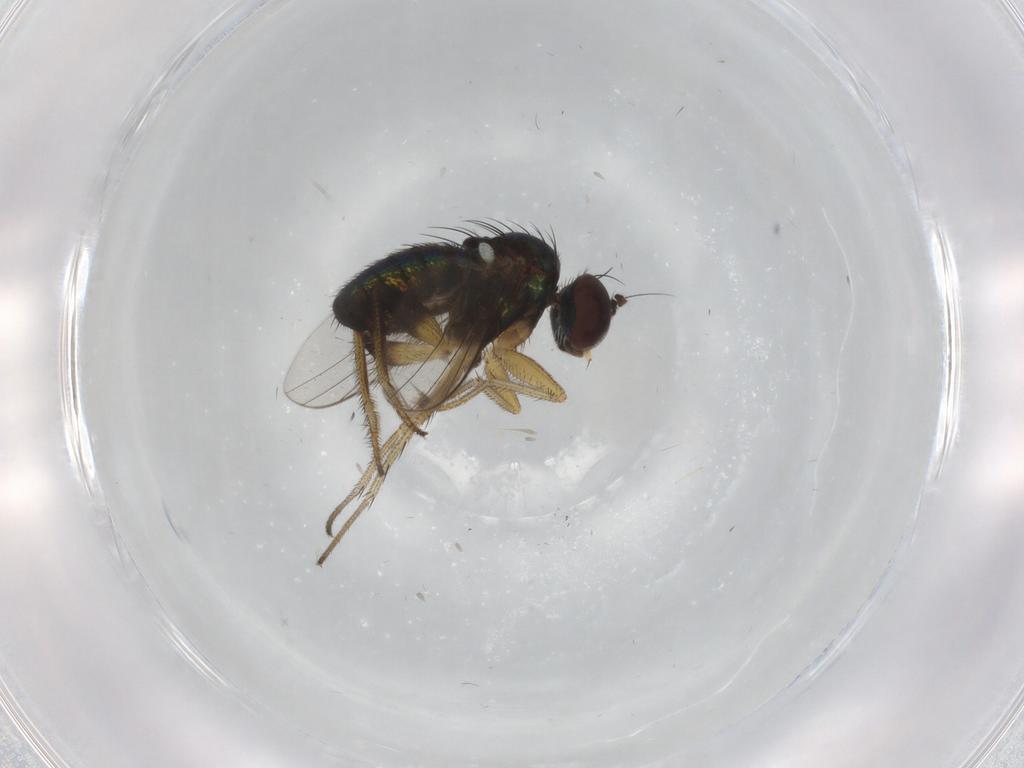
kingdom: Animalia
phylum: Arthropoda
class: Insecta
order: Diptera
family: Dolichopodidae
